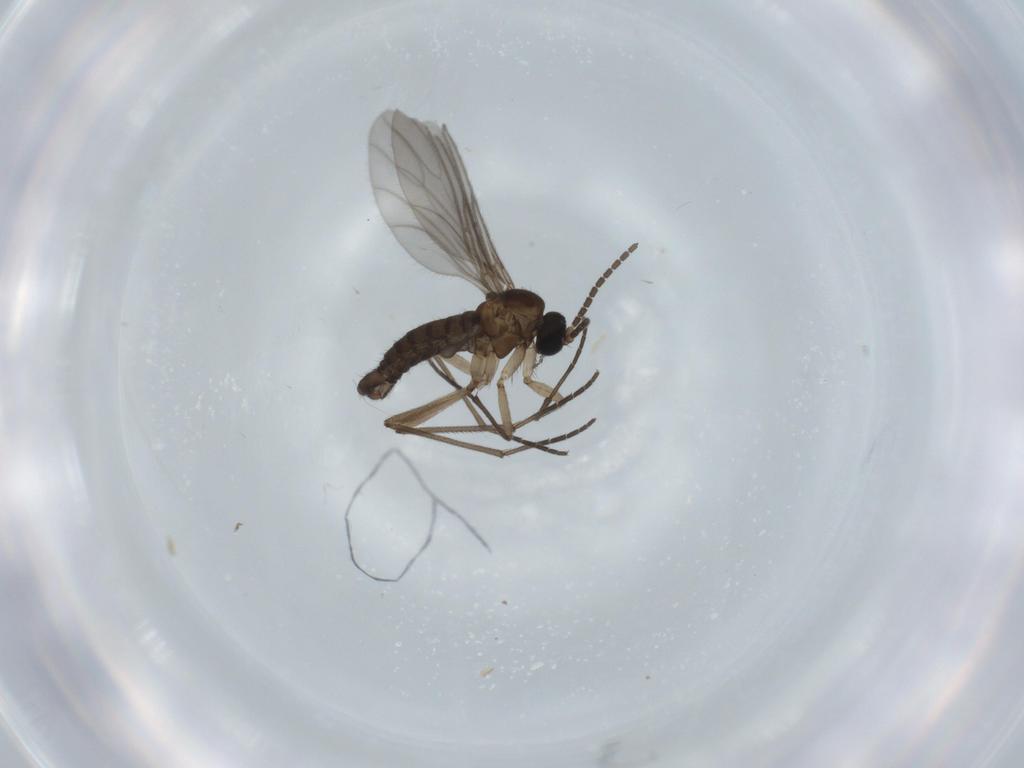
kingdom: Animalia
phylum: Arthropoda
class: Insecta
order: Diptera
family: Sciaridae
